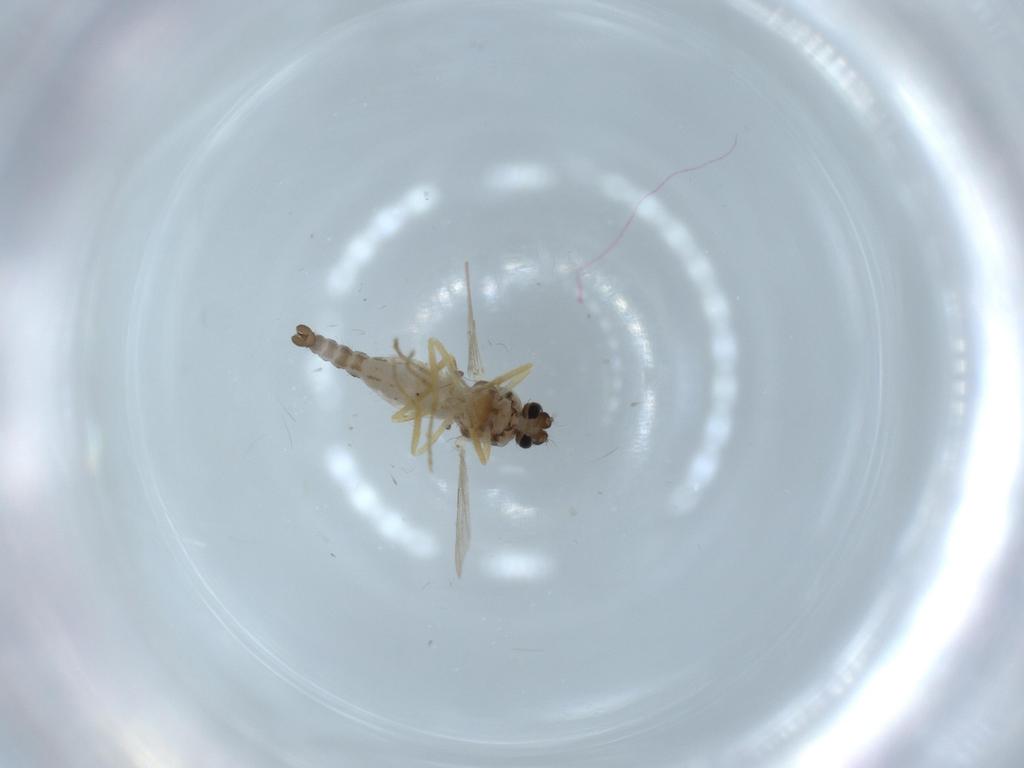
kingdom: Animalia
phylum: Arthropoda
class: Insecta
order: Diptera
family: Ceratopogonidae
